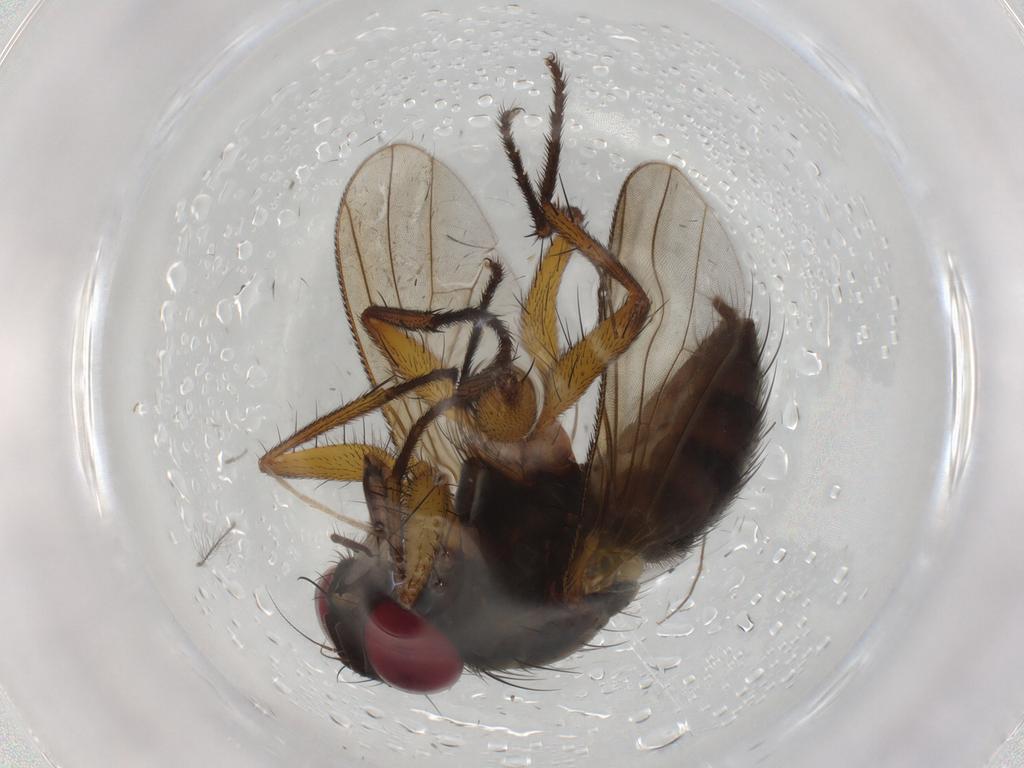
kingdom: Animalia
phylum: Arthropoda
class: Insecta
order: Diptera
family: Muscidae
